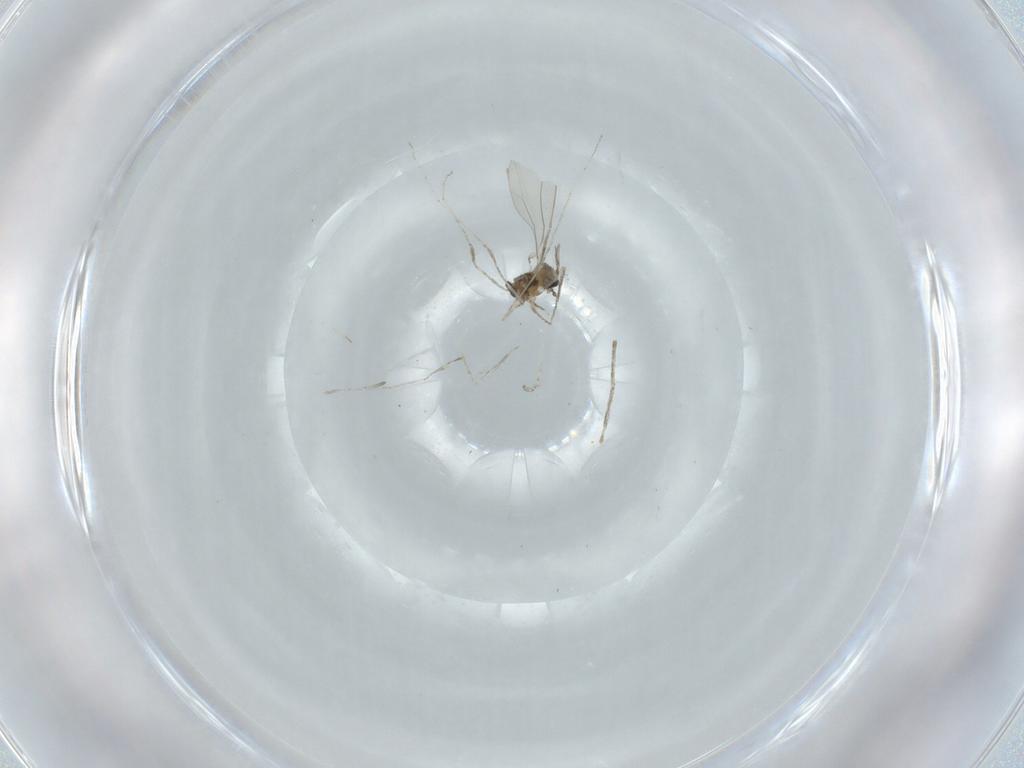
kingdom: Animalia
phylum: Arthropoda
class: Insecta
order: Diptera
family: Cecidomyiidae
